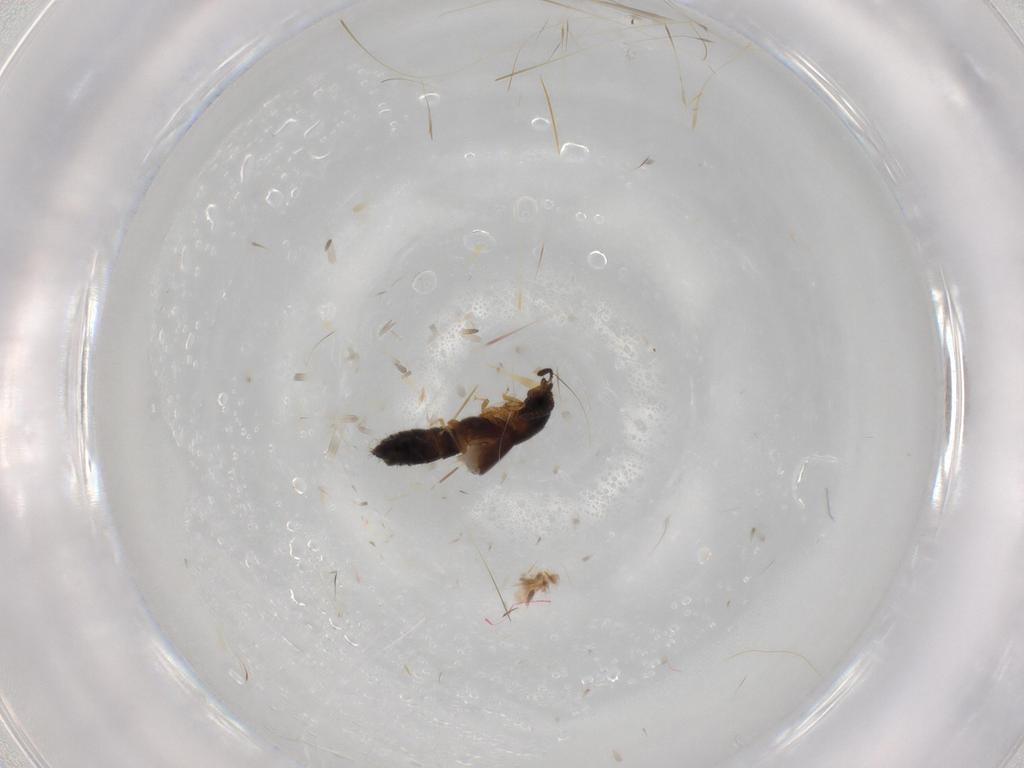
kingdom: Animalia
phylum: Arthropoda
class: Insecta
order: Coleoptera
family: Staphylinidae
